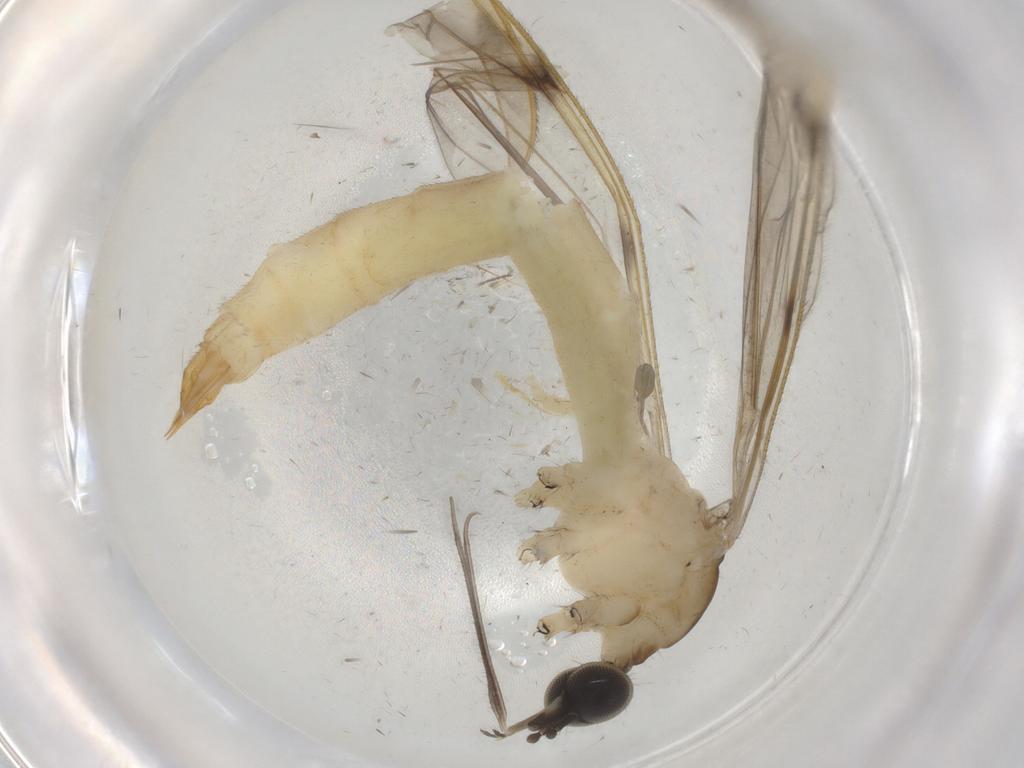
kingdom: Animalia
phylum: Arthropoda
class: Insecta
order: Diptera
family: Limoniidae
